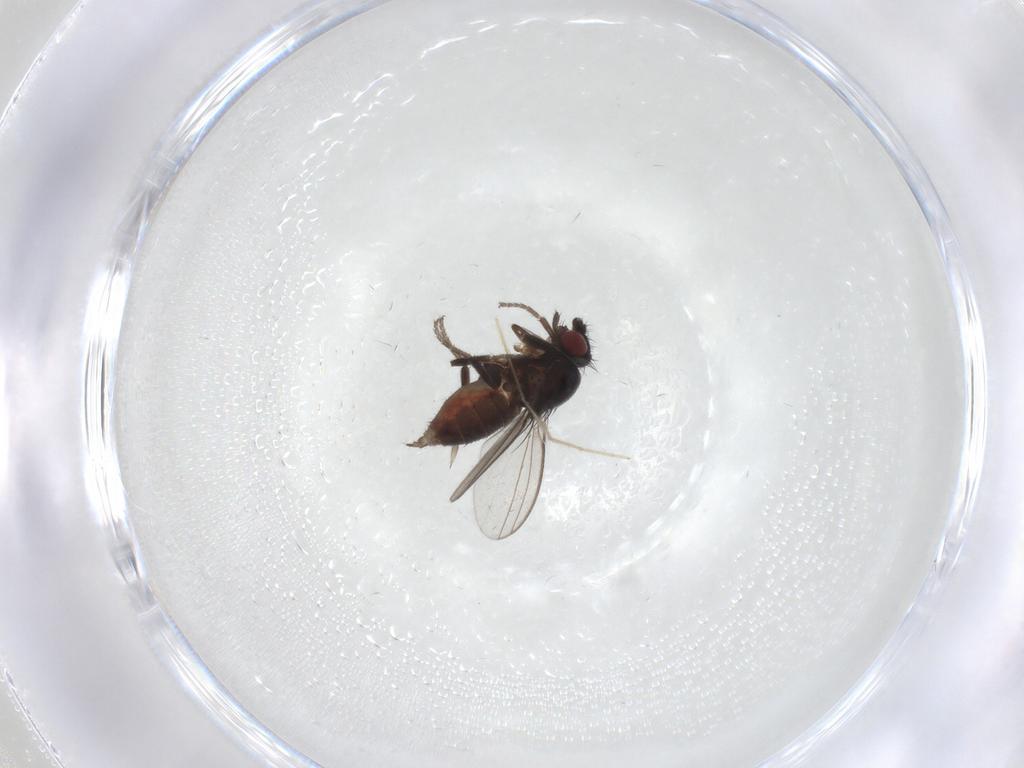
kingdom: Animalia
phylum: Arthropoda
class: Insecta
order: Diptera
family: Milichiidae
